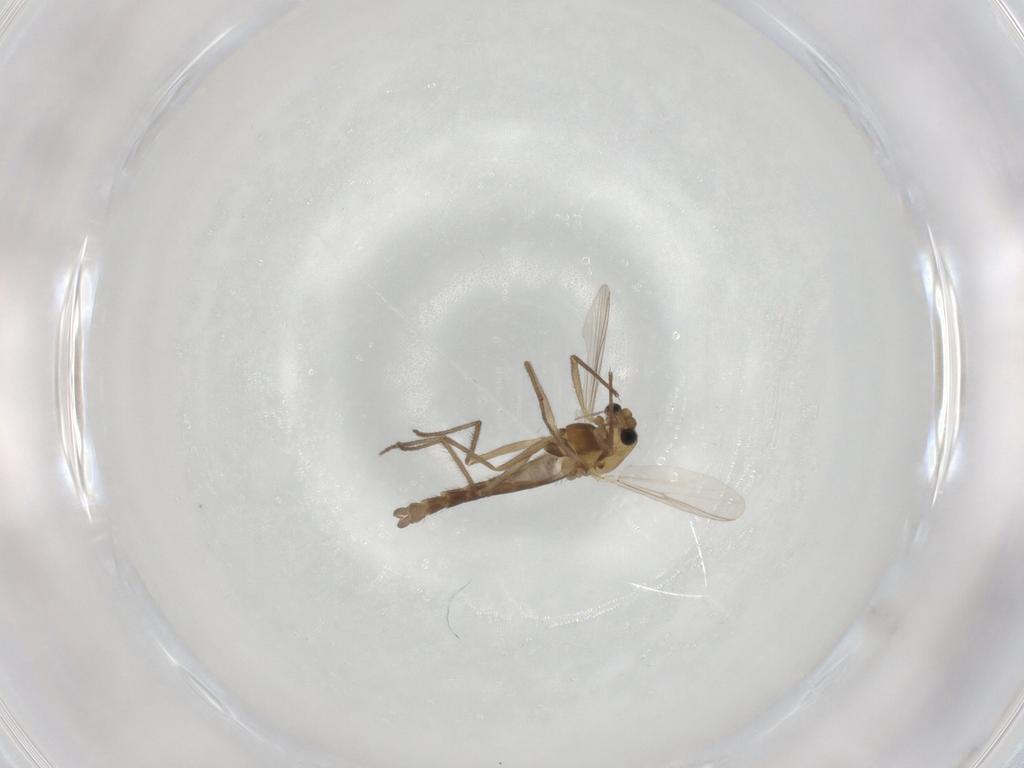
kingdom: Animalia
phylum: Arthropoda
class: Insecta
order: Diptera
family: Chironomidae
